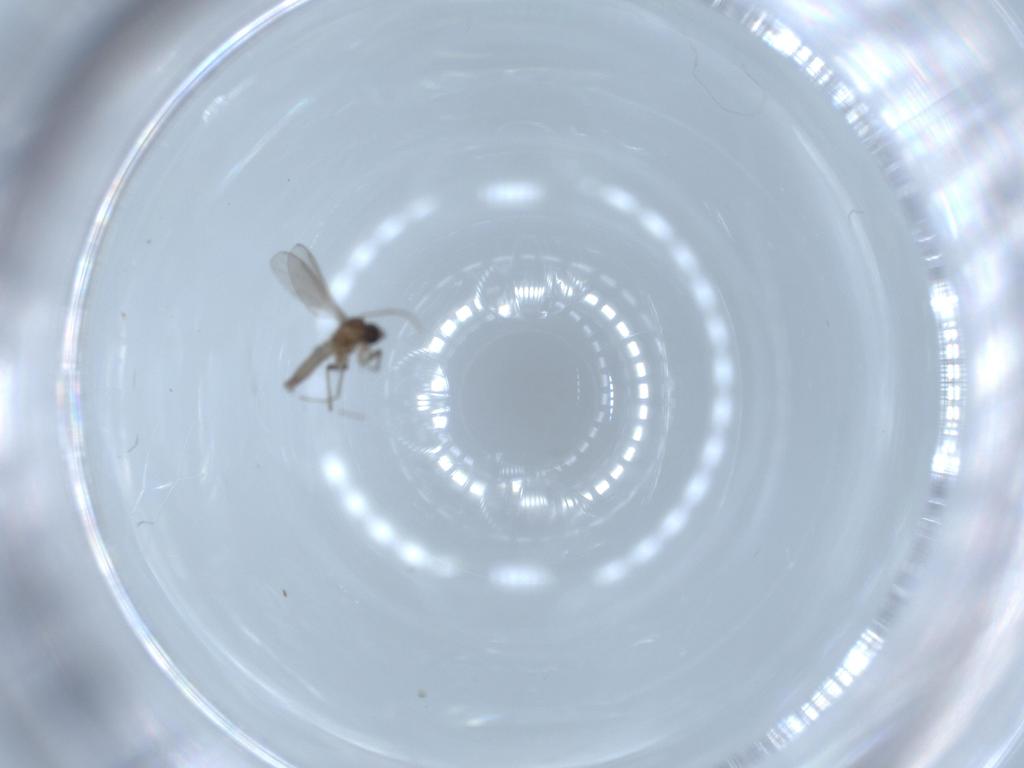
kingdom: Animalia
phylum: Arthropoda
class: Insecta
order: Diptera
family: Sciaridae
